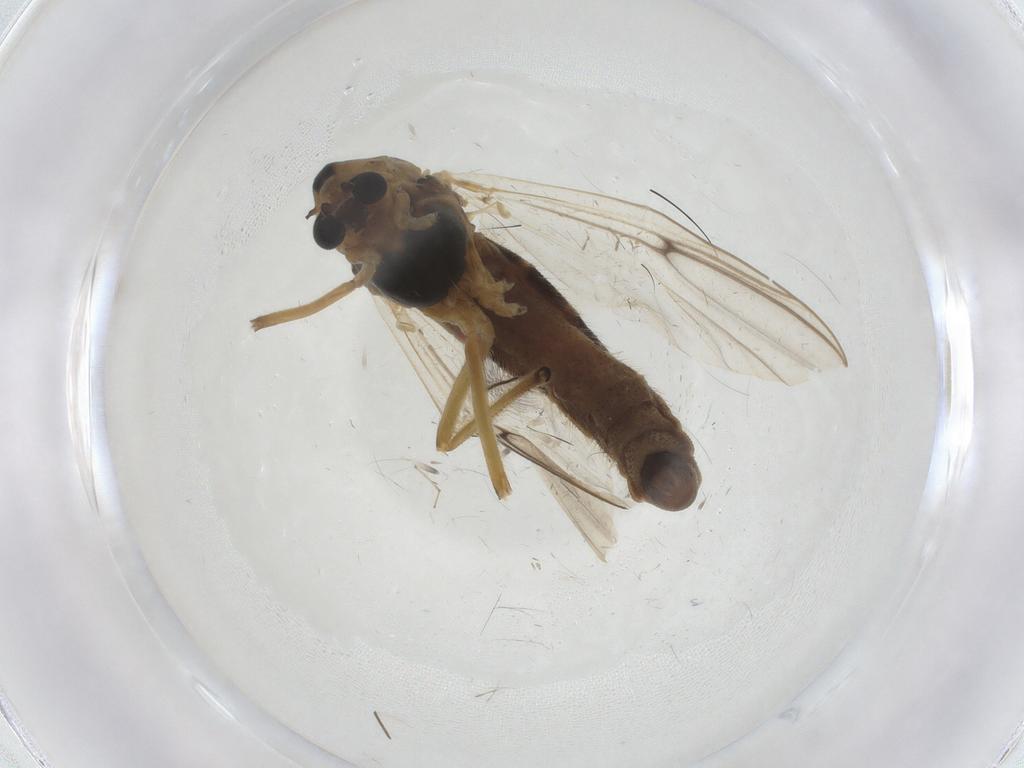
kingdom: Animalia
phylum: Arthropoda
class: Insecta
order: Diptera
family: Chironomidae
